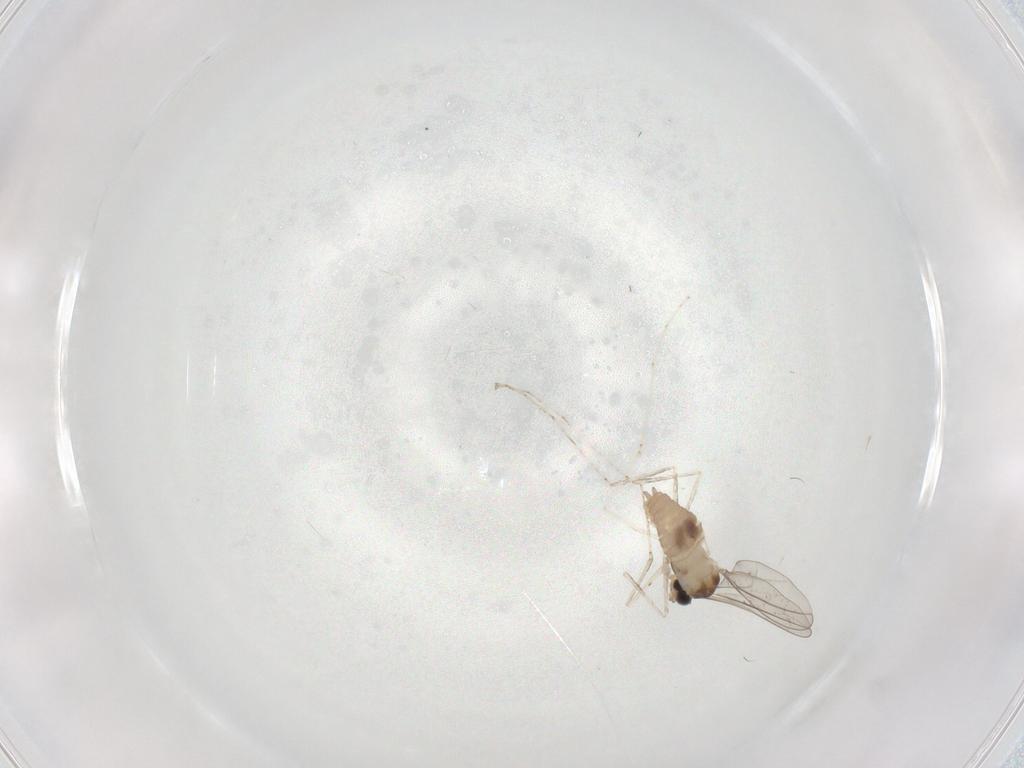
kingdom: Animalia
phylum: Arthropoda
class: Insecta
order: Diptera
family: Cecidomyiidae
